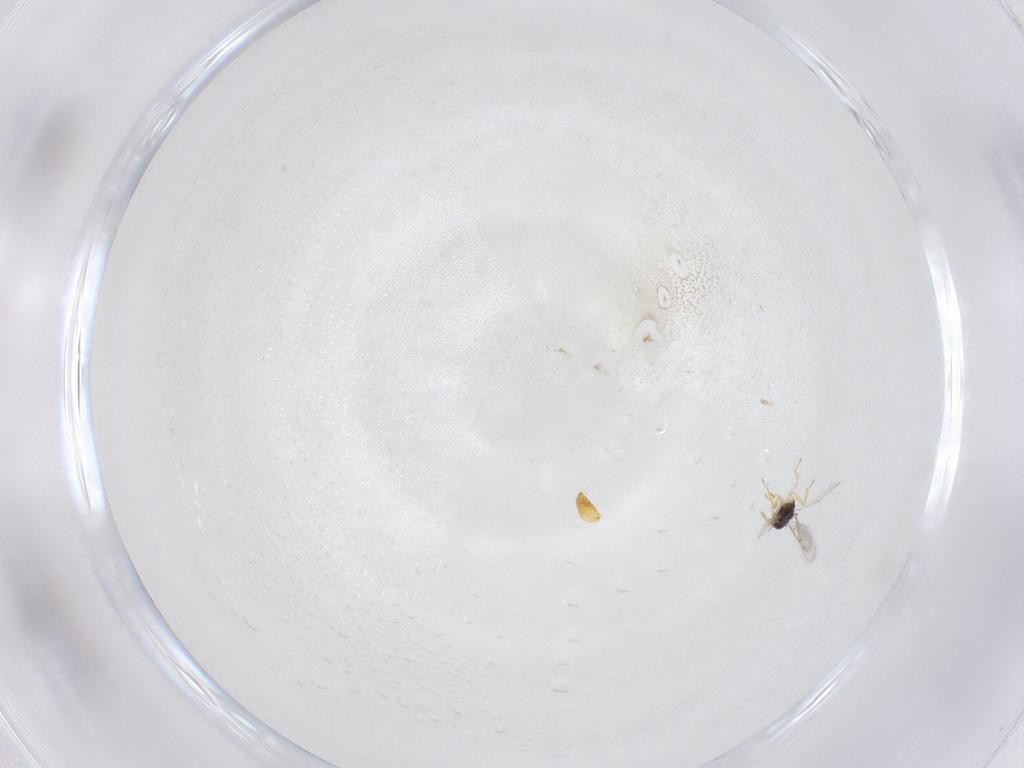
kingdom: Animalia
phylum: Arthropoda
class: Insecta
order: Hymenoptera
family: Eulophidae
